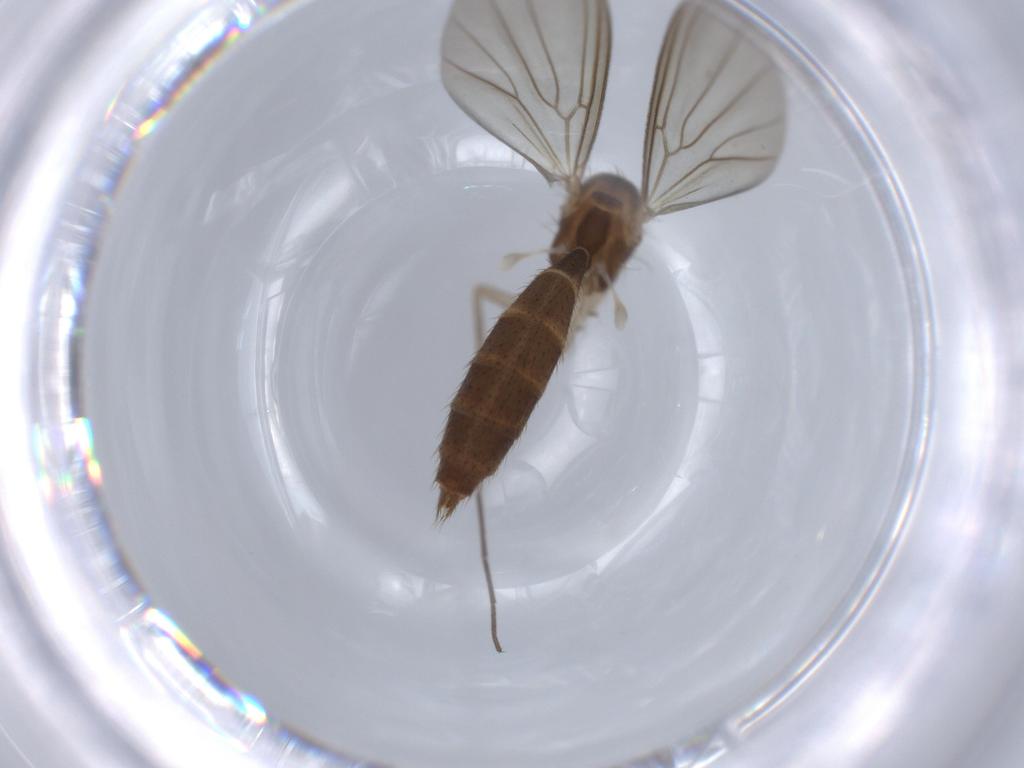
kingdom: Animalia
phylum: Arthropoda
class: Insecta
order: Diptera
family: Mycetophilidae
